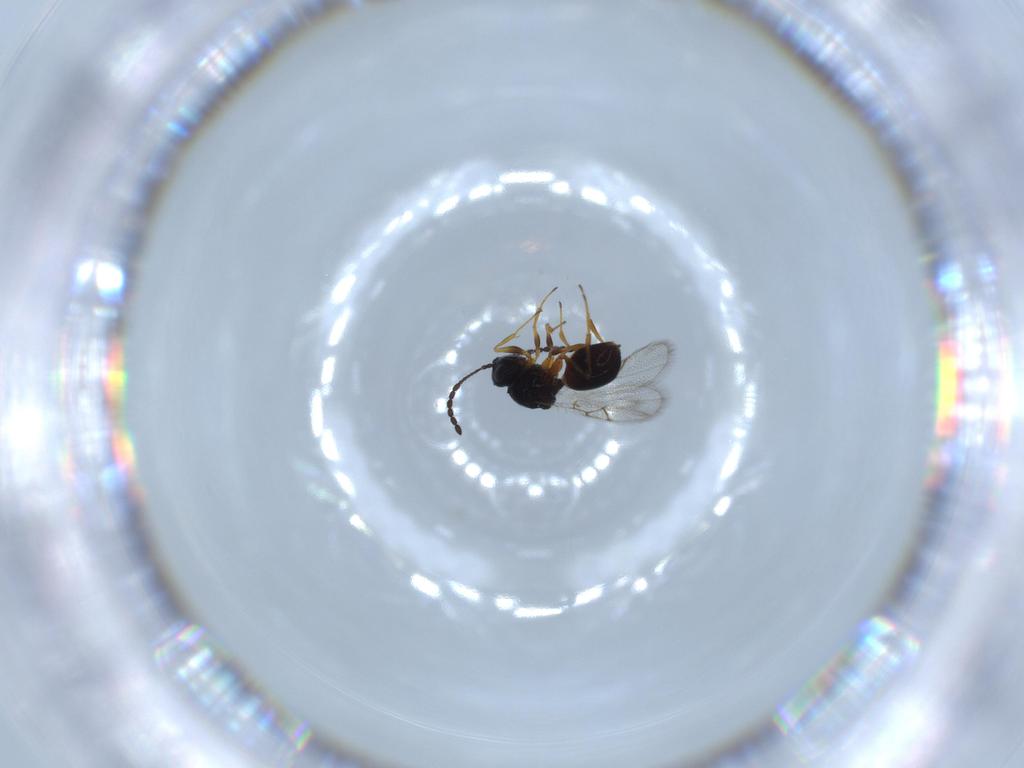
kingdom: Animalia
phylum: Arthropoda
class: Insecta
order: Hymenoptera
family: Figitidae
